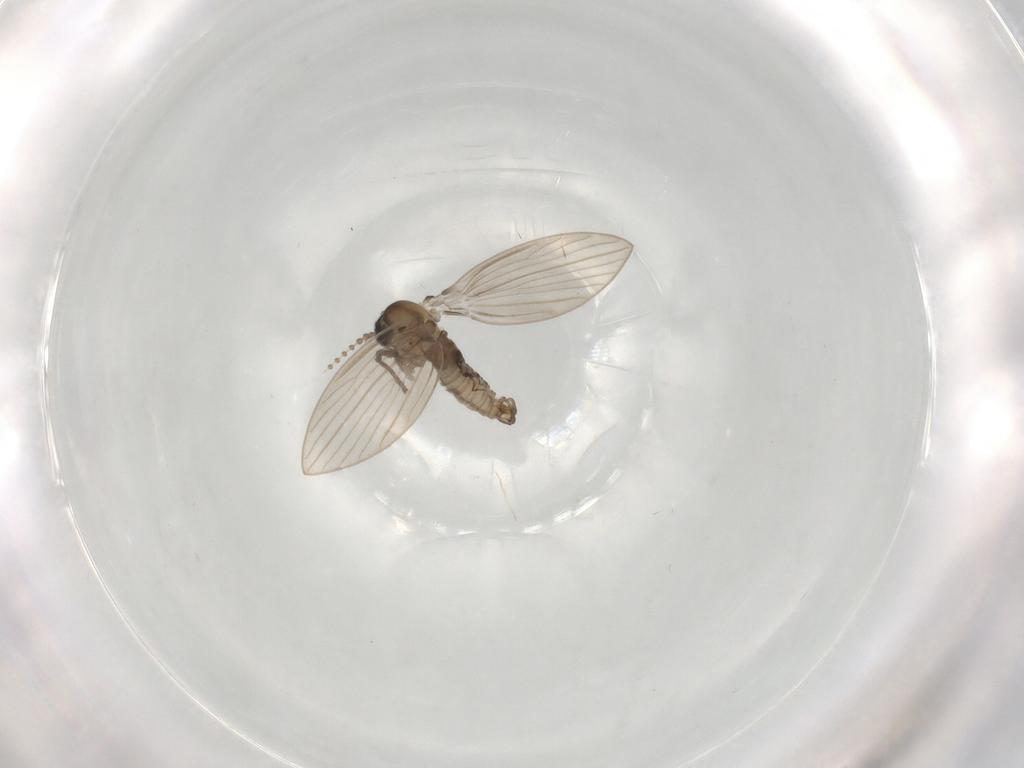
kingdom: Animalia
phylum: Arthropoda
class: Insecta
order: Diptera
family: Psychodidae
